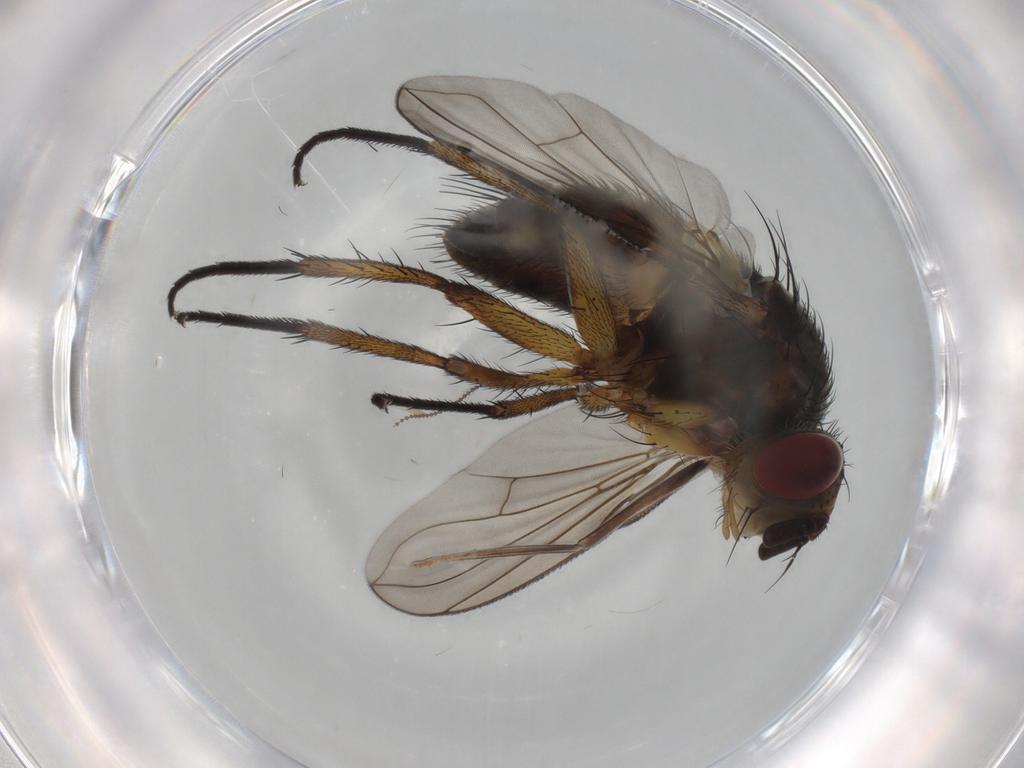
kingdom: Animalia
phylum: Arthropoda
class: Insecta
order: Diptera
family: Tachinidae
